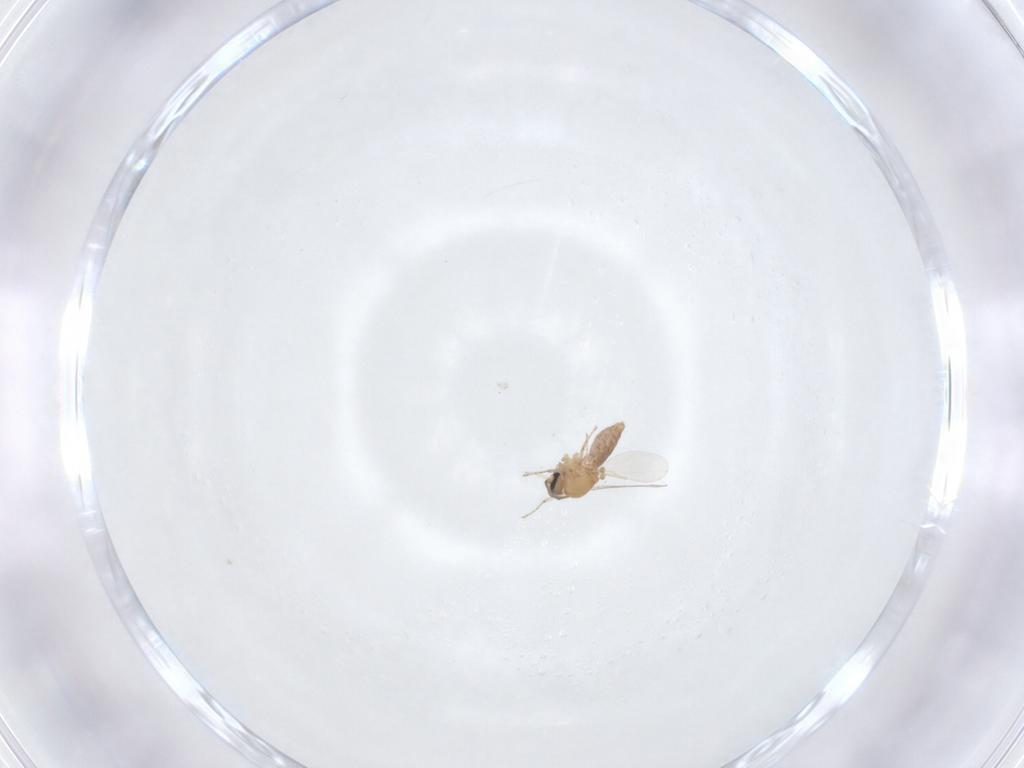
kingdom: Animalia
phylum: Arthropoda
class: Insecta
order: Diptera
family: Ceratopogonidae
